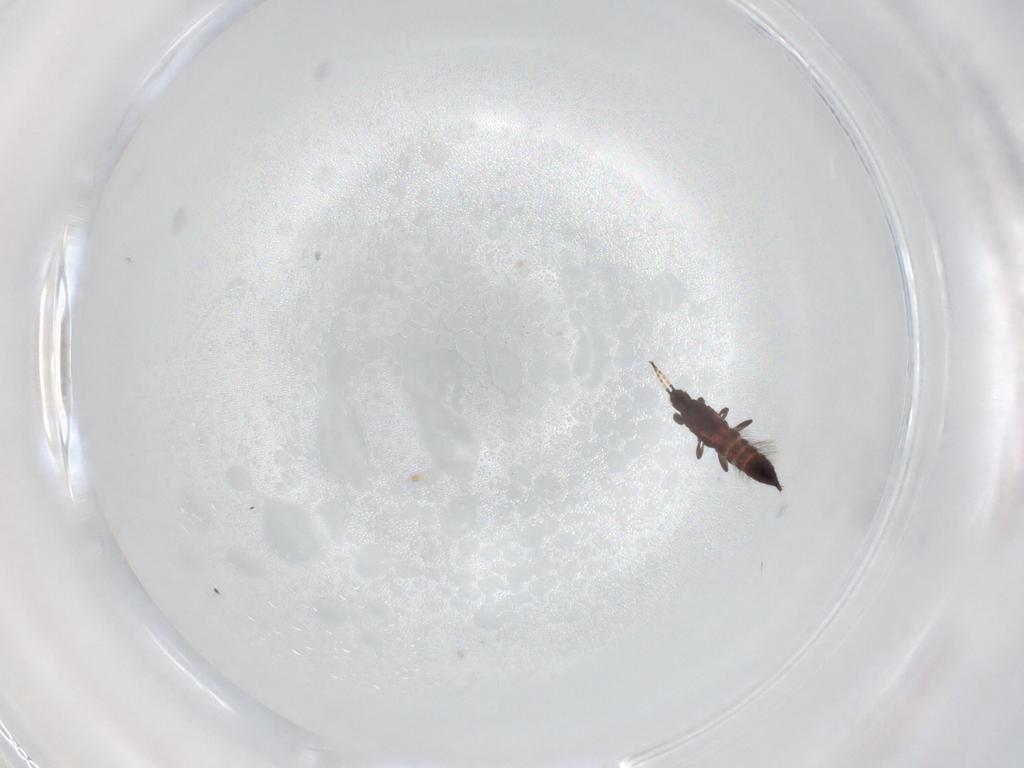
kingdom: Animalia
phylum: Arthropoda
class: Insecta
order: Thysanoptera
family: Phlaeothripidae
